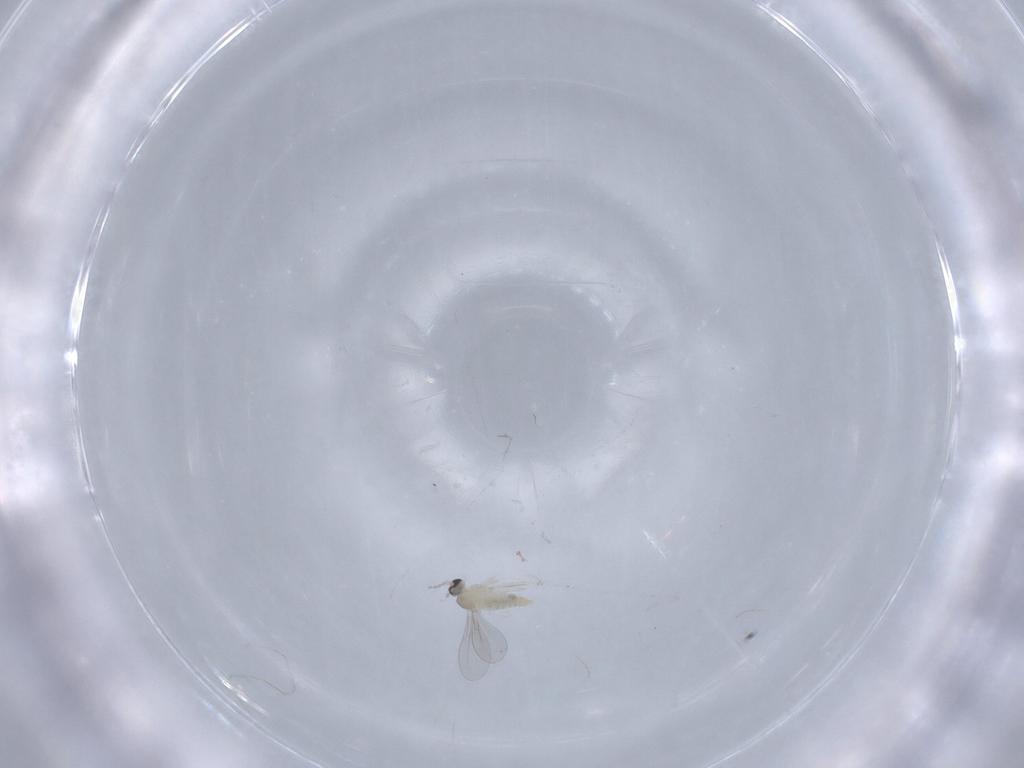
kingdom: Animalia
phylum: Arthropoda
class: Insecta
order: Diptera
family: Cecidomyiidae
